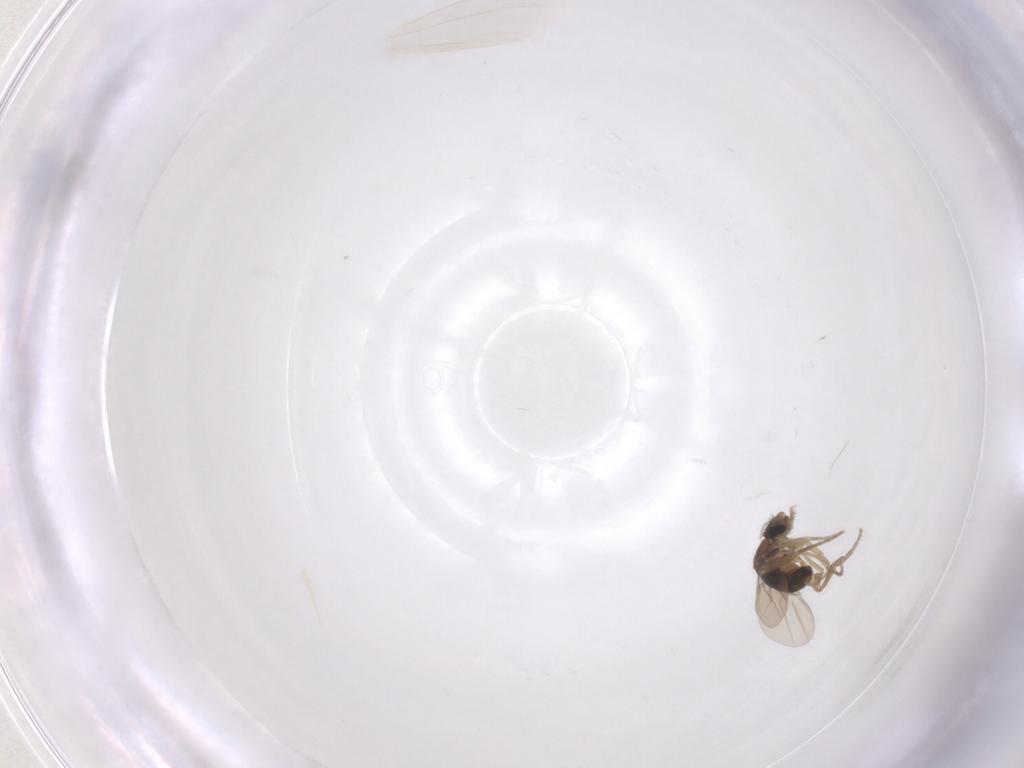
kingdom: Animalia
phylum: Arthropoda
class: Insecta
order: Diptera
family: Phoridae
